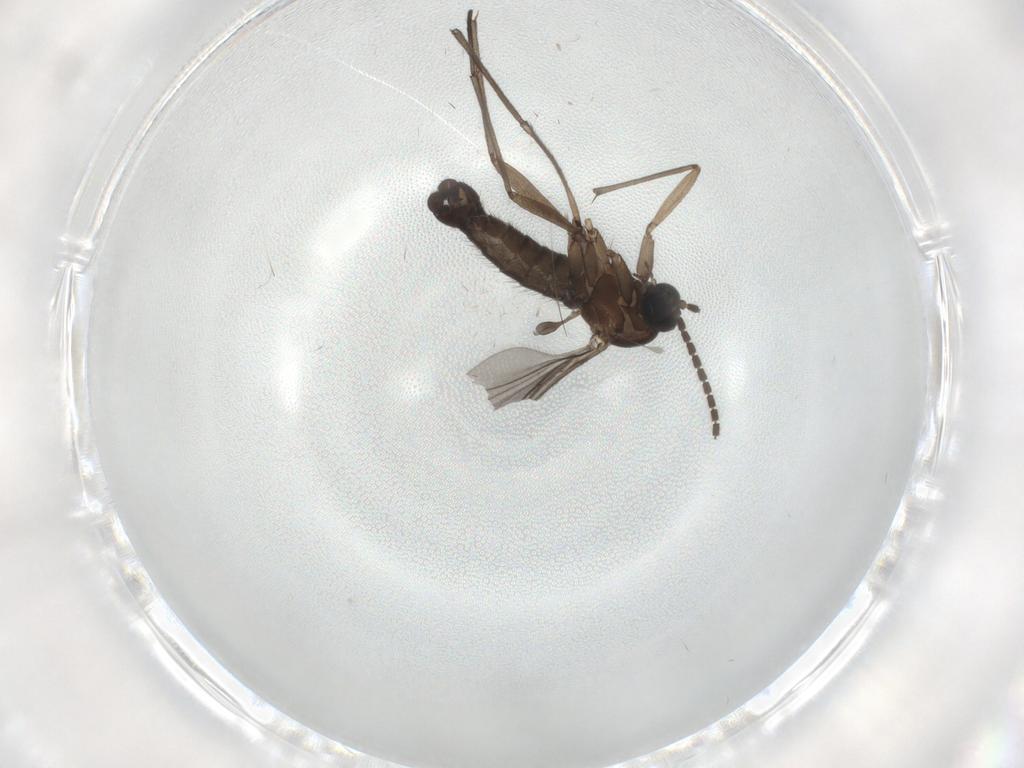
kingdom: Animalia
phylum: Arthropoda
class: Insecta
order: Diptera
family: Sciaridae
